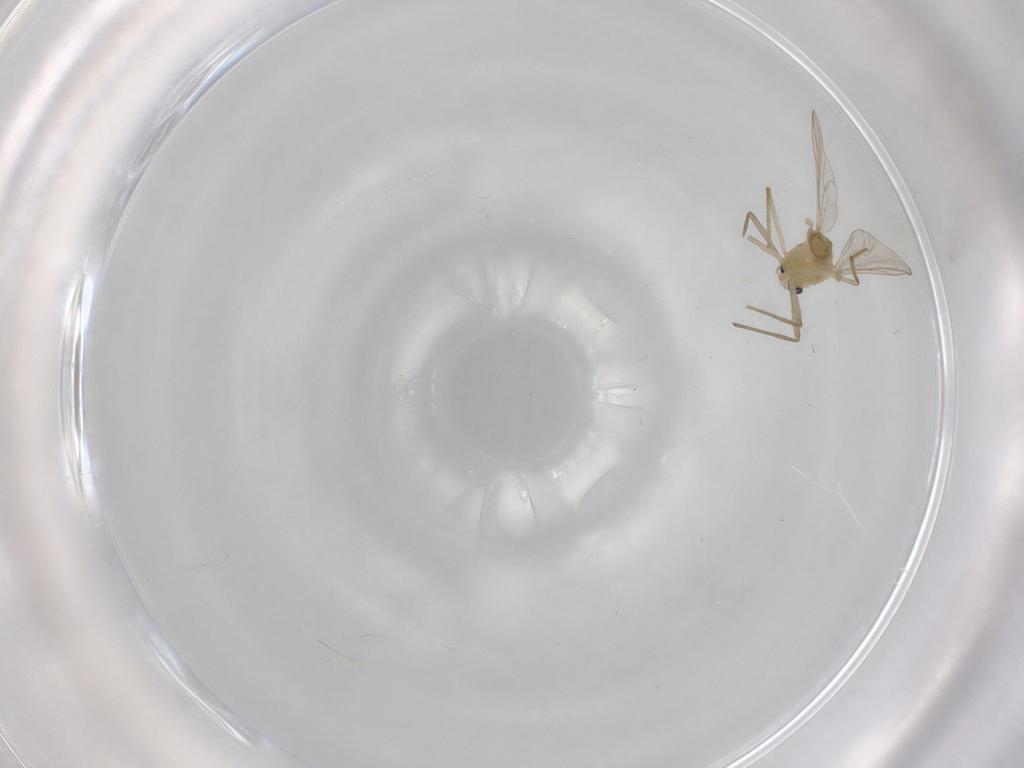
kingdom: Animalia
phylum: Arthropoda
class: Insecta
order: Diptera
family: Chironomidae
